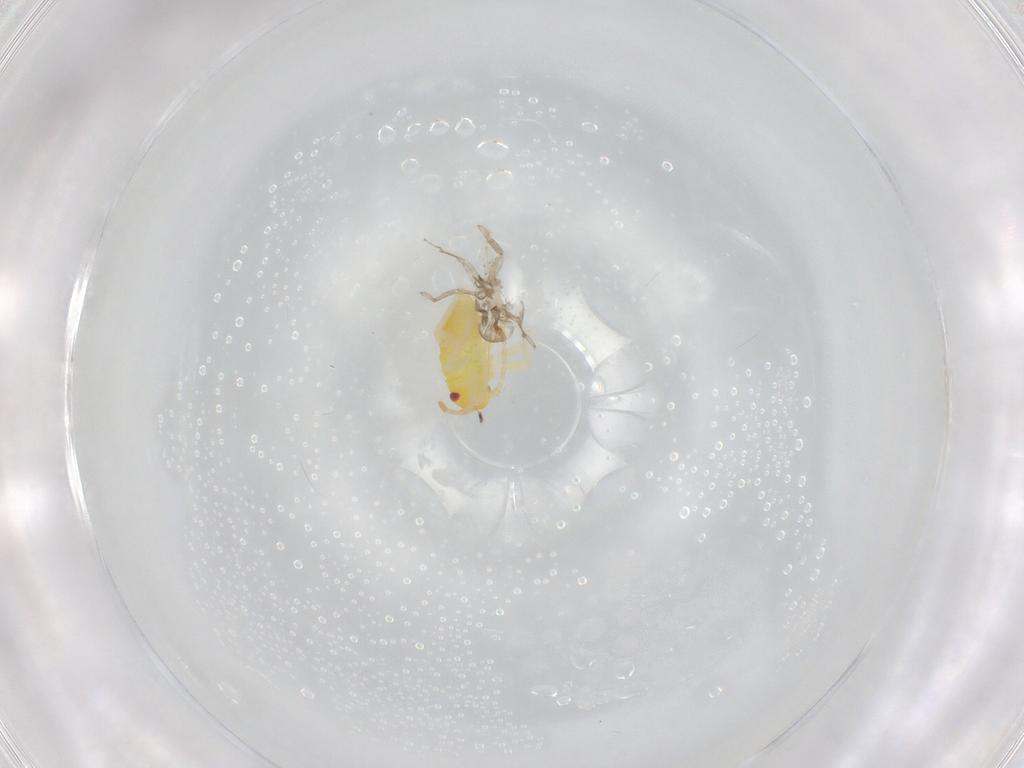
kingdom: Animalia
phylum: Arthropoda
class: Insecta
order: Hemiptera
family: Miridae
